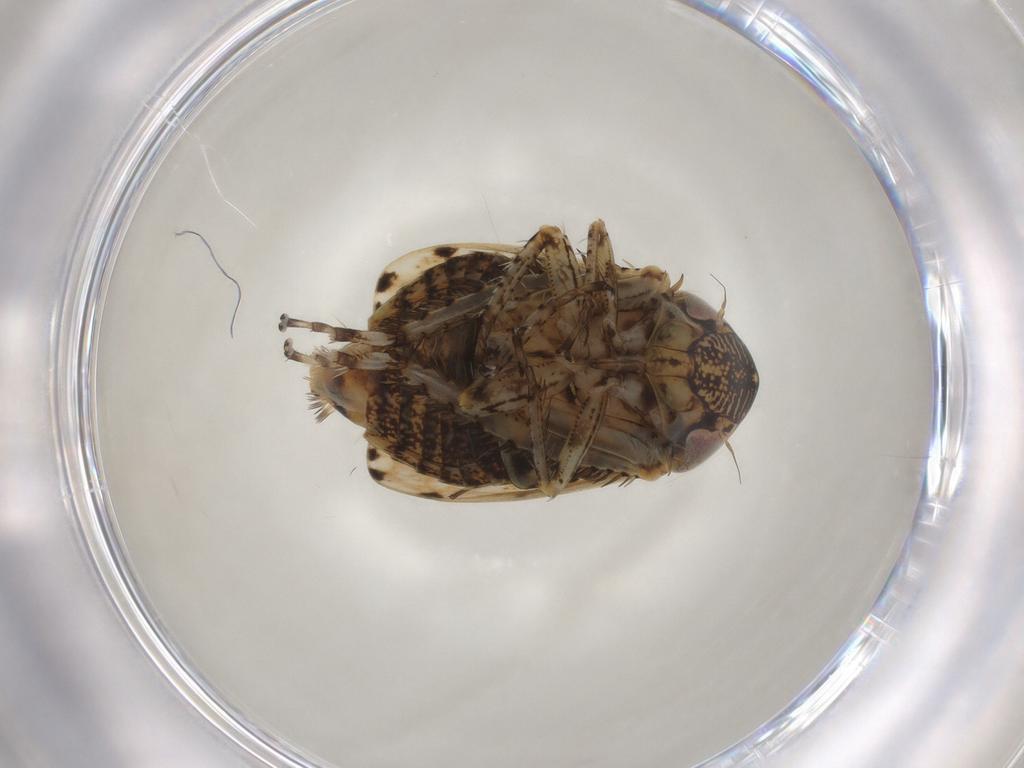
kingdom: Animalia
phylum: Arthropoda
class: Insecta
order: Hemiptera
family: Cicadellidae
